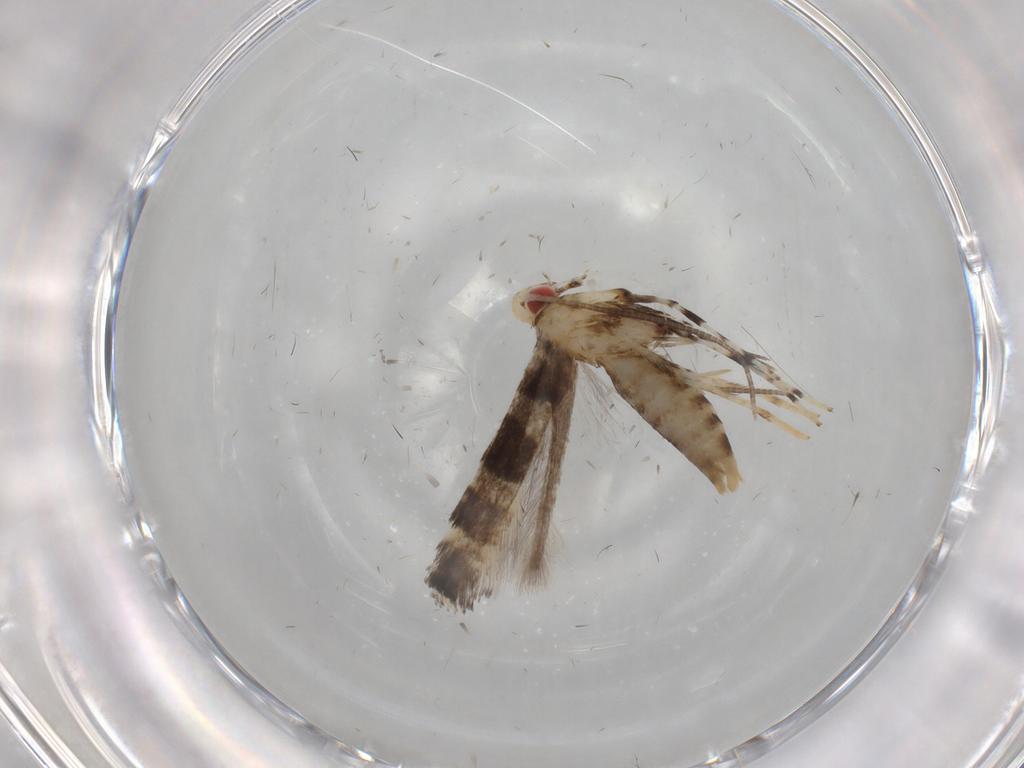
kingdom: Animalia
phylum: Arthropoda
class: Insecta
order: Lepidoptera
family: Gracillariidae
